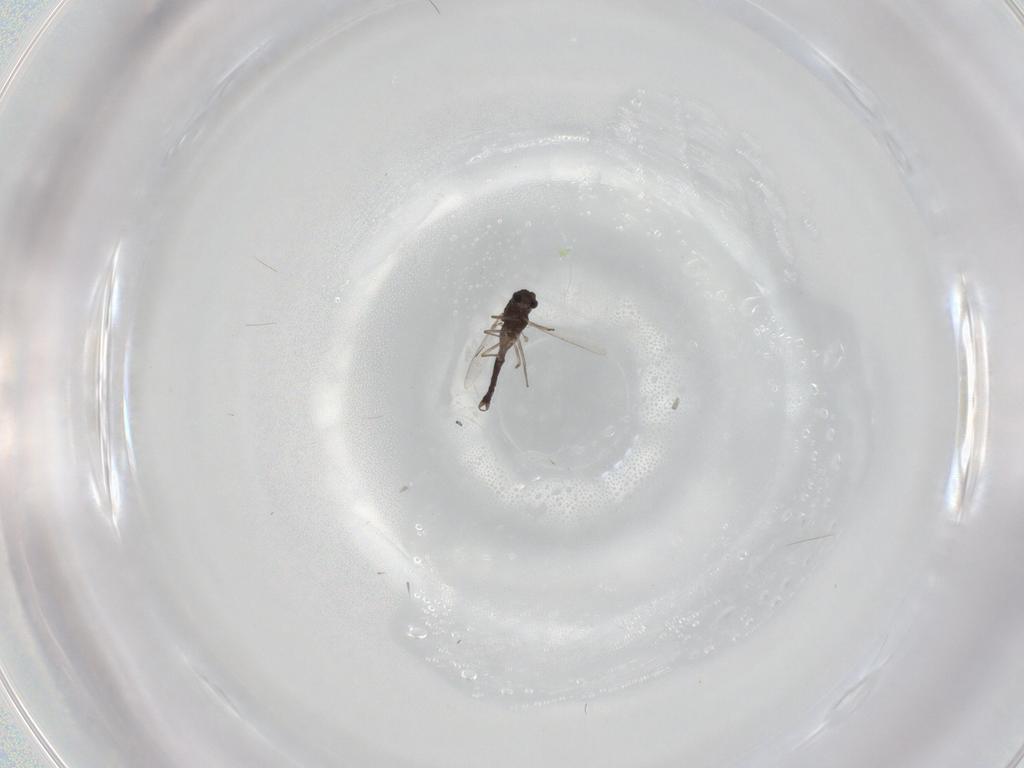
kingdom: Animalia
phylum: Arthropoda
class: Insecta
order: Diptera
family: Chironomidae
